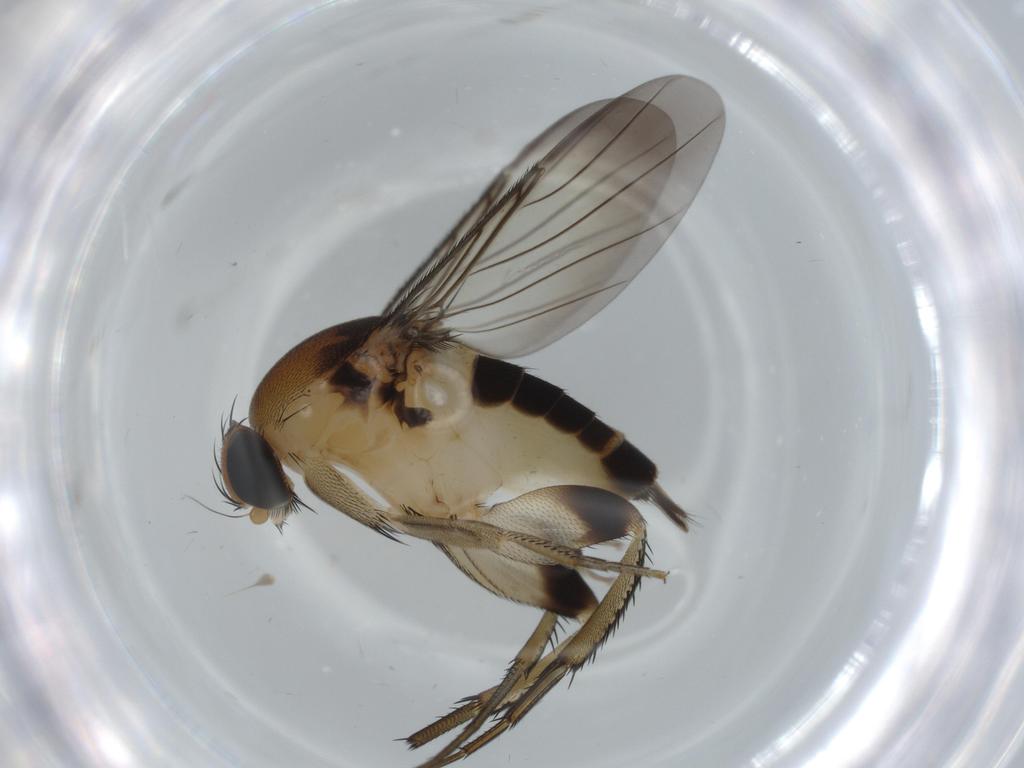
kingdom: Animalia
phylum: Arthropoda
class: Insecta
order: Diptera
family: Phoridae
